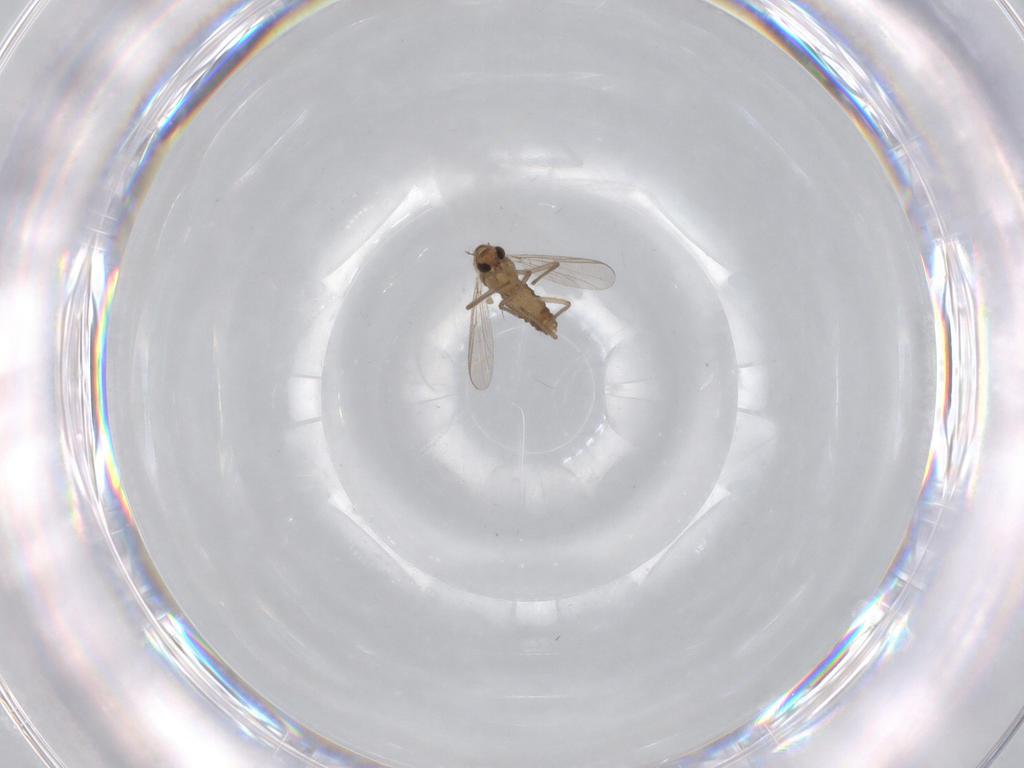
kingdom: Animalia
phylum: Arthropoda
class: Insecta
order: Diptera
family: Chironomidae
